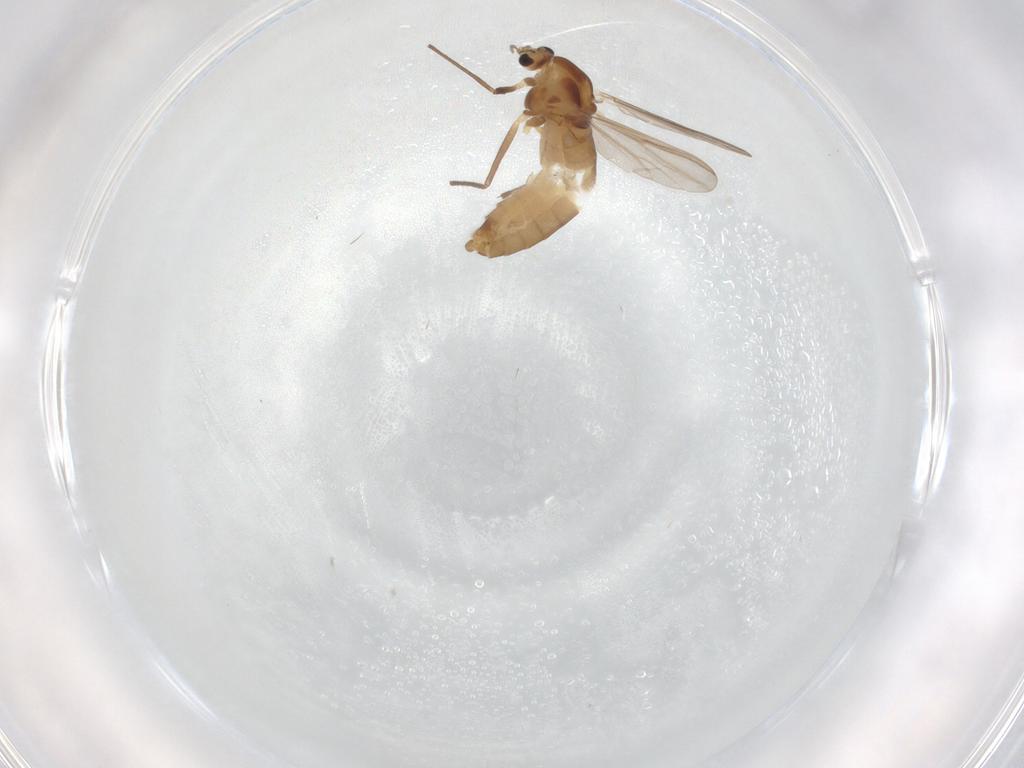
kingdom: Animalia
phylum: Arthropoda
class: Insecta
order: Diptera
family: Chironomidae
